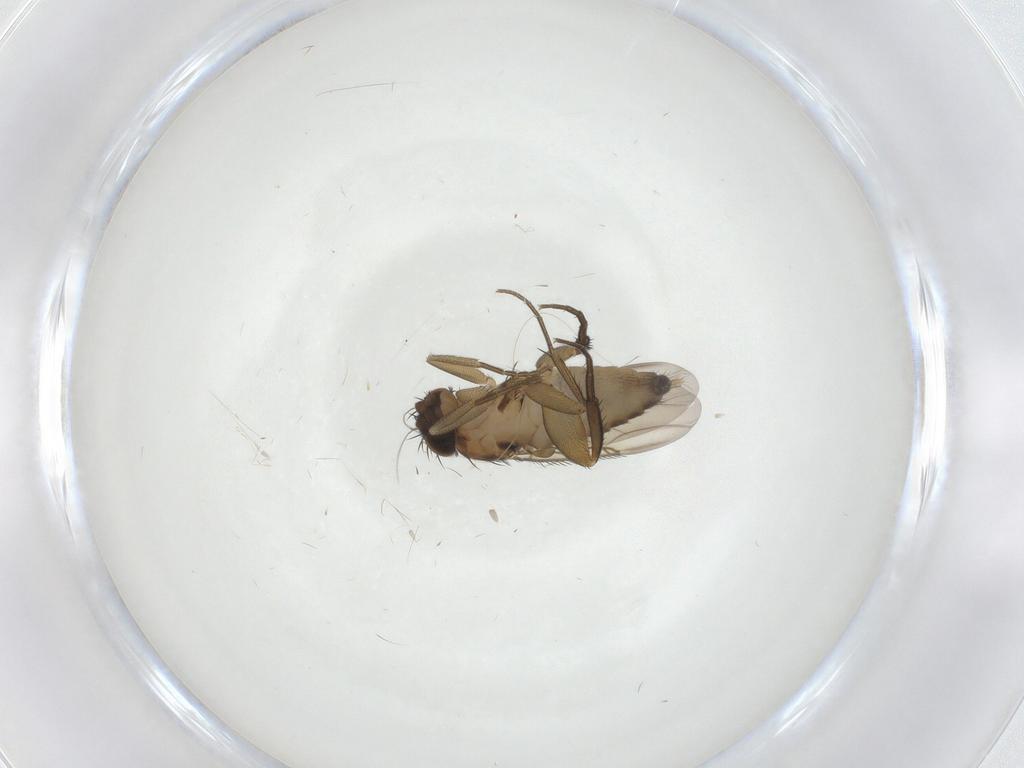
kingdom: Animalia
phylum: Arthropoda
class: Insecta
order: Diptera
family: Phoridae
